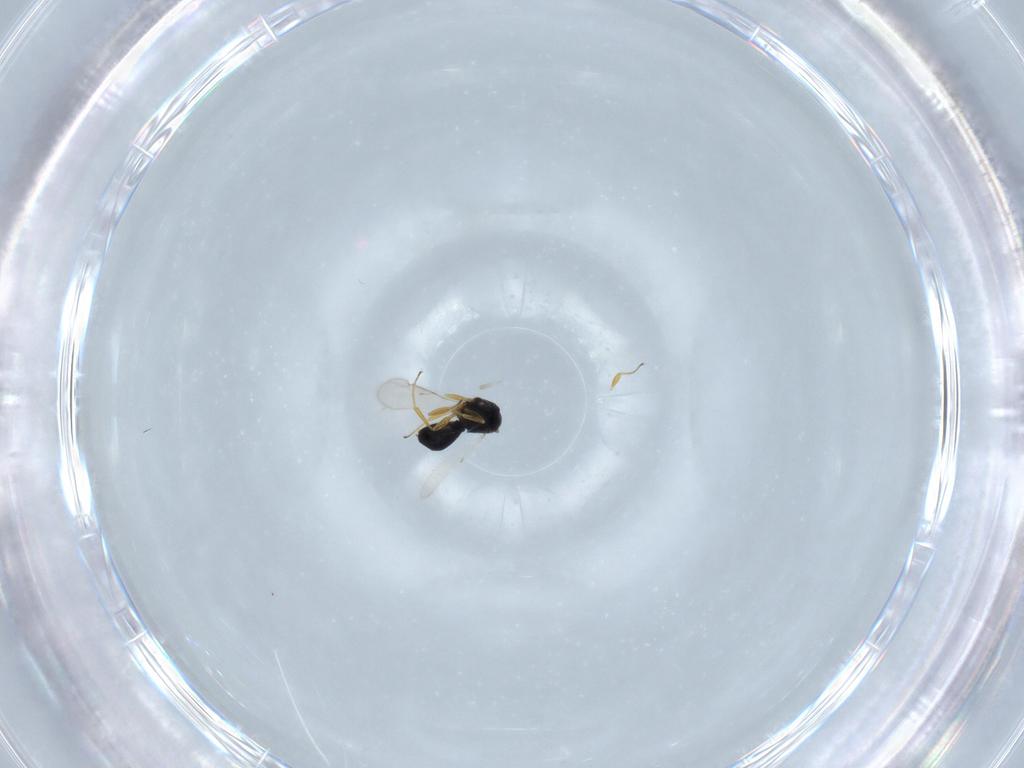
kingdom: Animalia
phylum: Arthropoda
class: Insecta
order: Hymenoptera
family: Scelionidae
